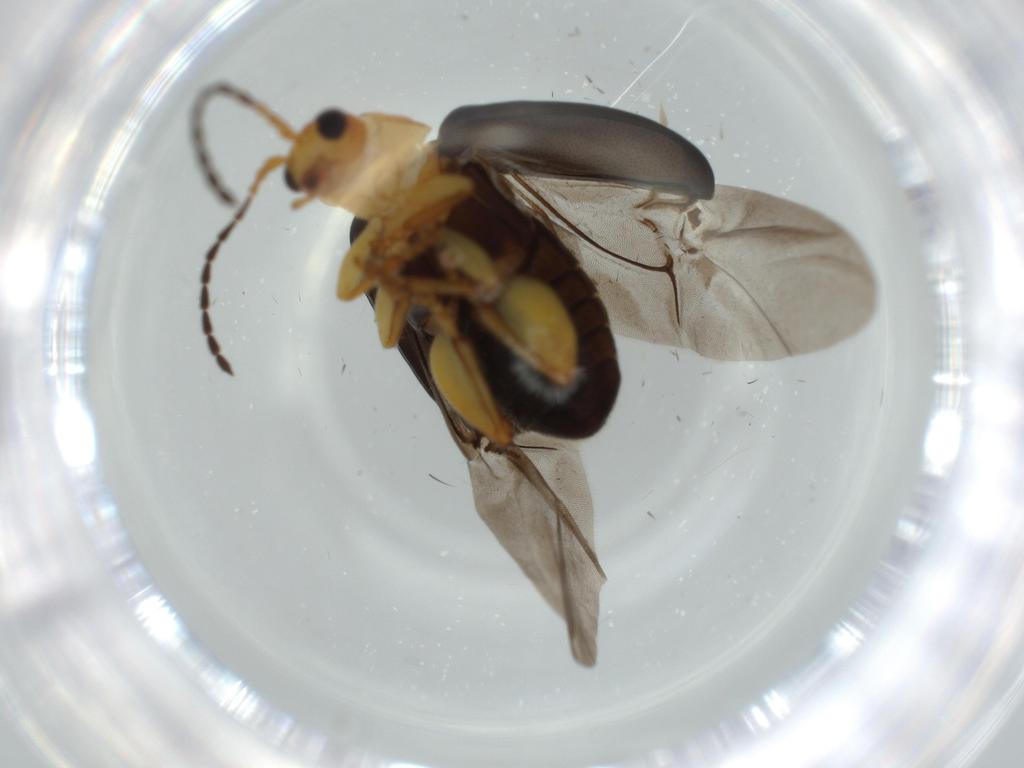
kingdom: Animalia
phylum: Arthropoda
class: Insecta
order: Coleoptera
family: Chrysomelidae
